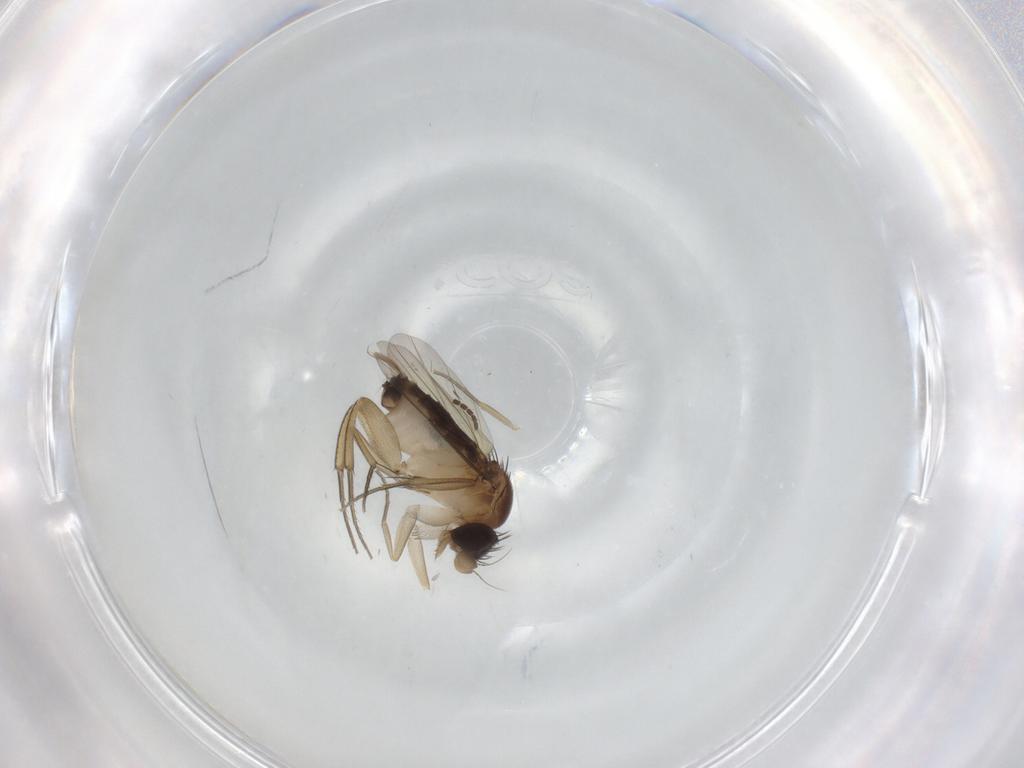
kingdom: Animalia
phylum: Arthropoda
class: Insecta
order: Diptera
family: Phoridae
